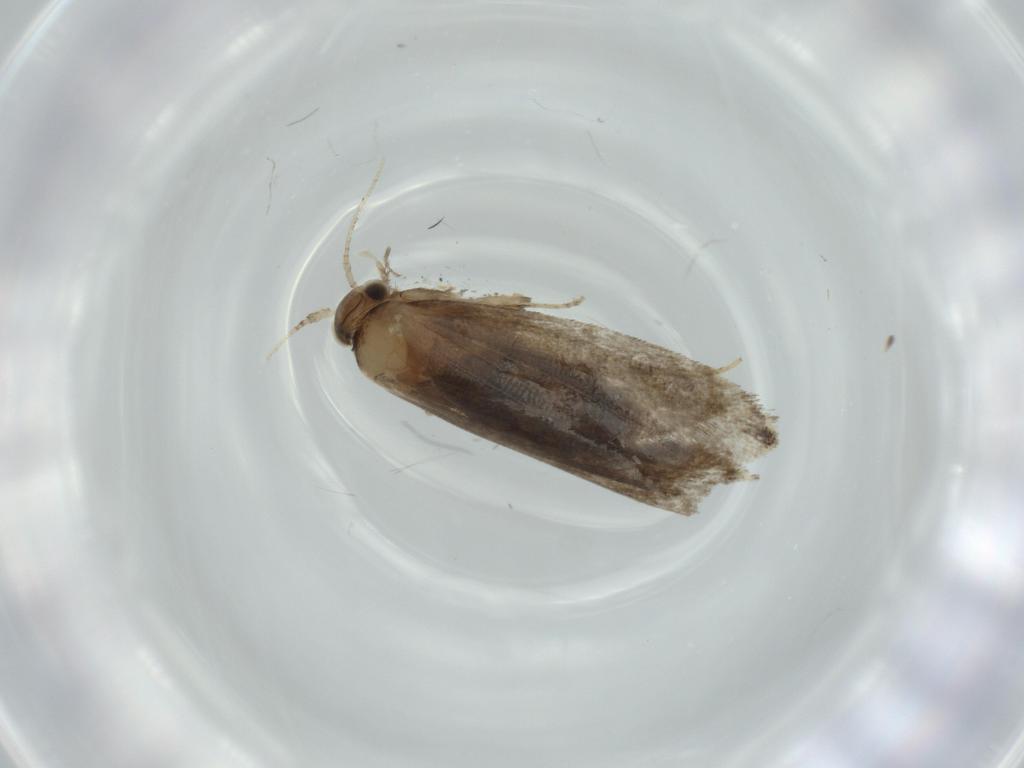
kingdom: Animalia
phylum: Arthropoda
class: Insecta
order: Lepidoptera
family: Tineidae
